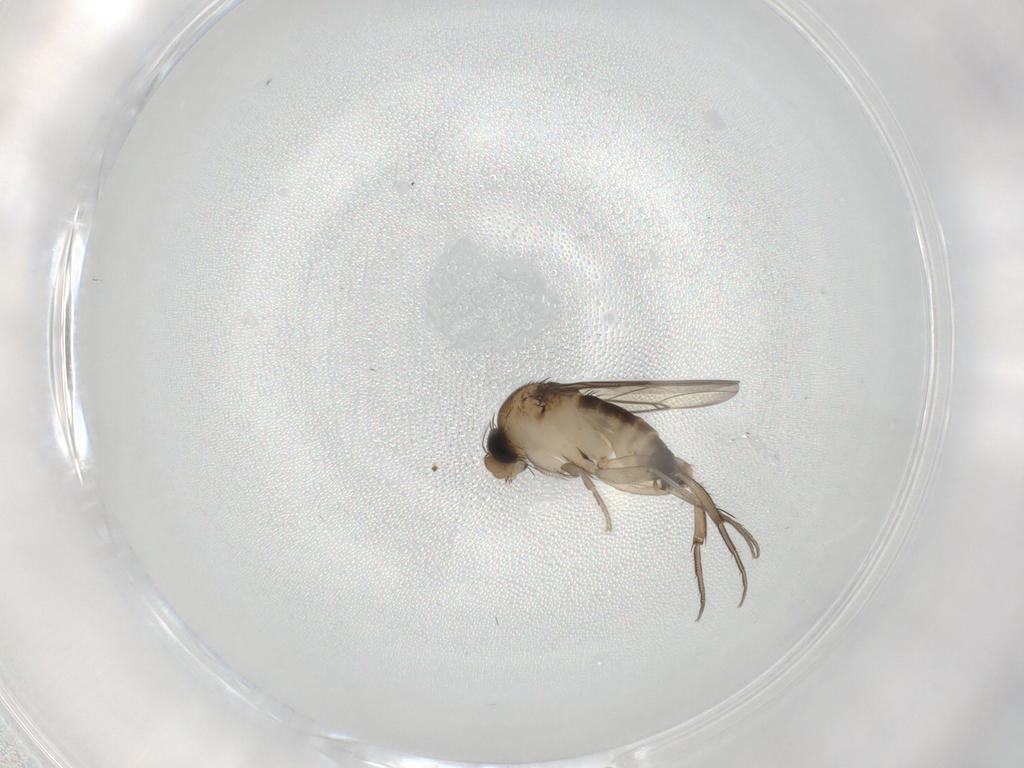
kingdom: Animalia
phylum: Arthropoda
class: Insecta
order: Diptera
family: Phoridae
